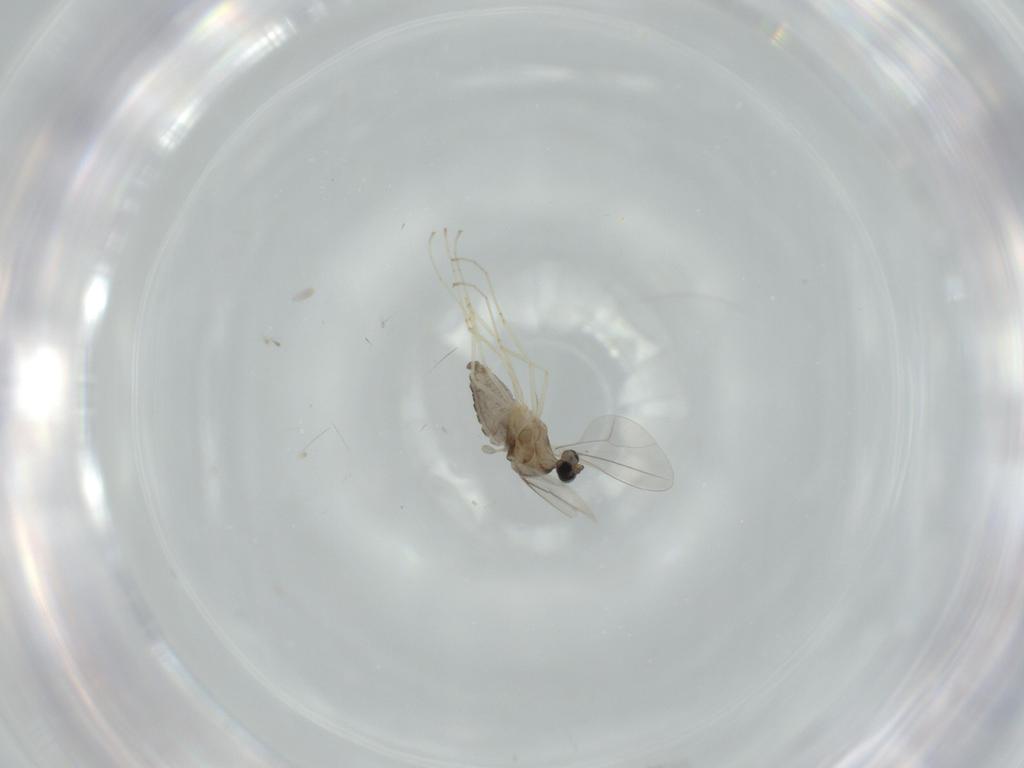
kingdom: Animalia
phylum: Arthropoda
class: Insecta
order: Diptera
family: Cecidomyiidae
